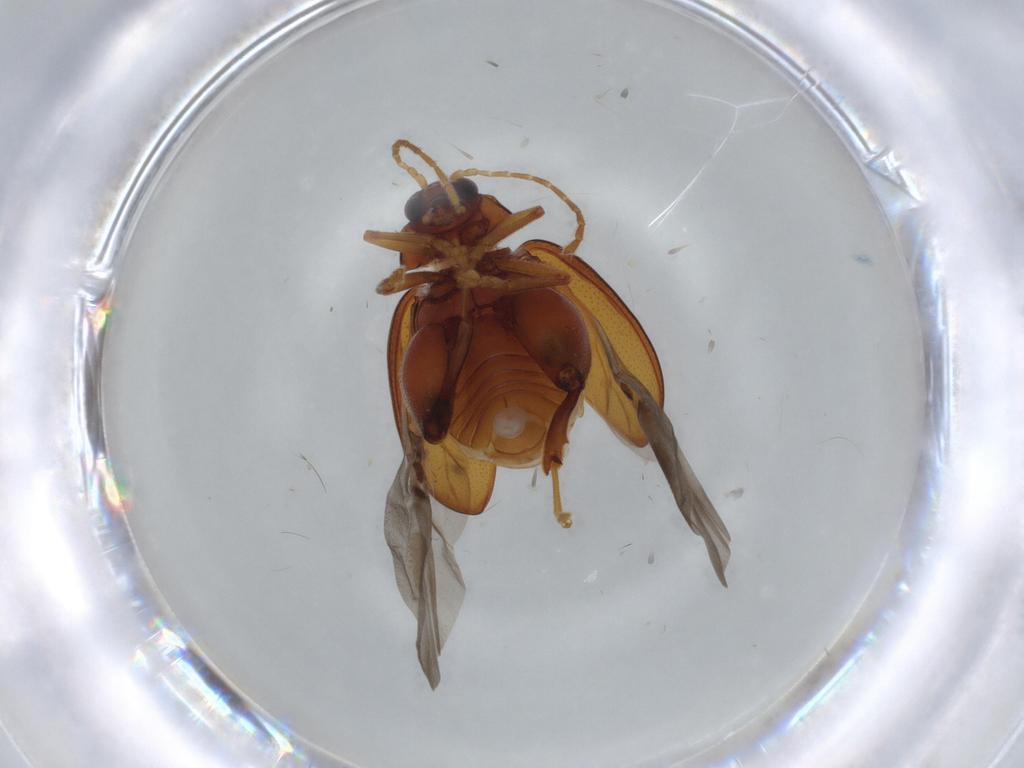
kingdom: Animalia
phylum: Arthropoda
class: Insecta
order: Coleoptera
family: Chrysomelidae
